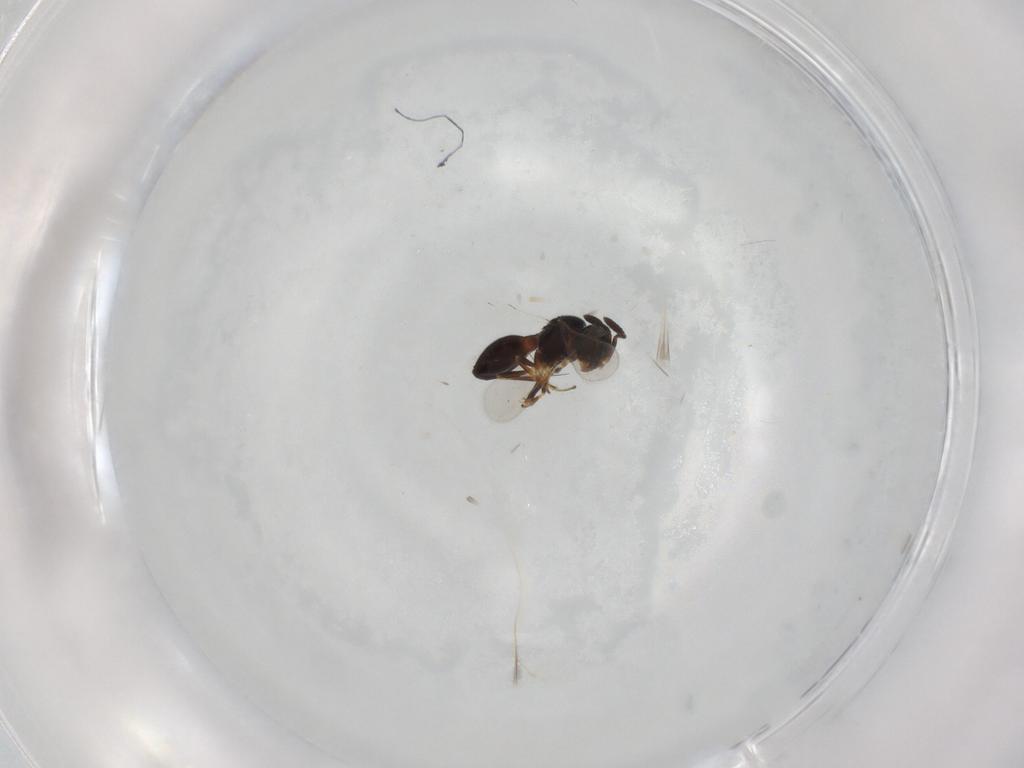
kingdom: Animalia
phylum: Arthropoda
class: Insecta
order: Hymenoptera
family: Scelionidae
